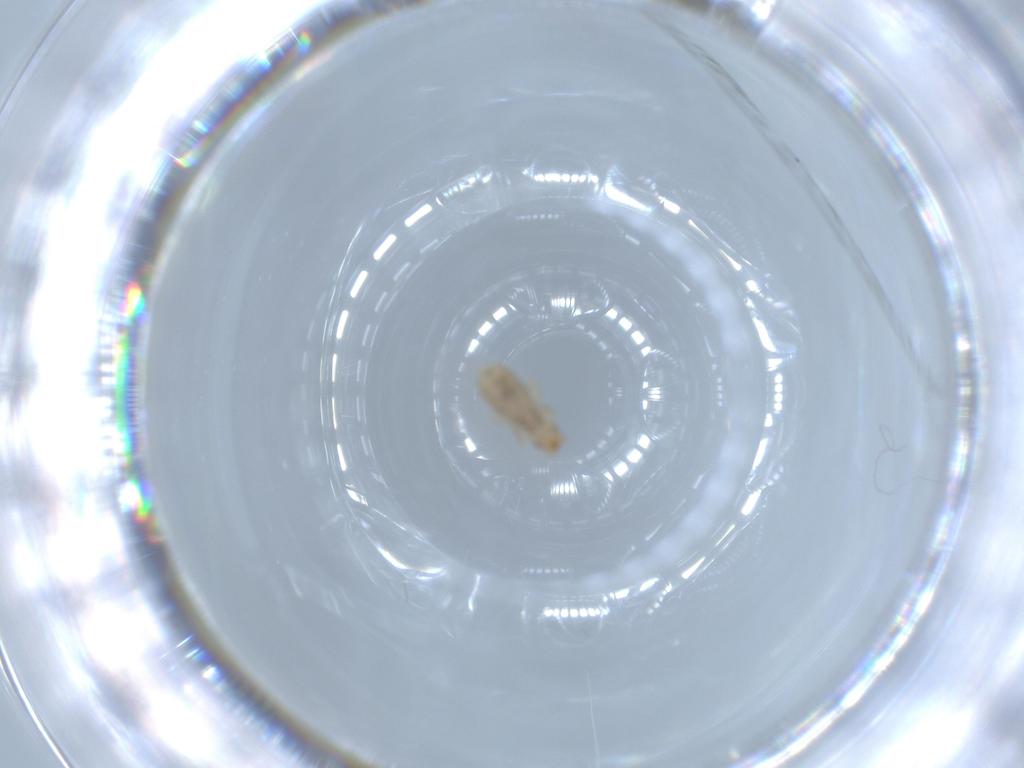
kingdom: Animalia
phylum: Arthropoda
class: Insecta
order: Psocodea
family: Liposcelididae
